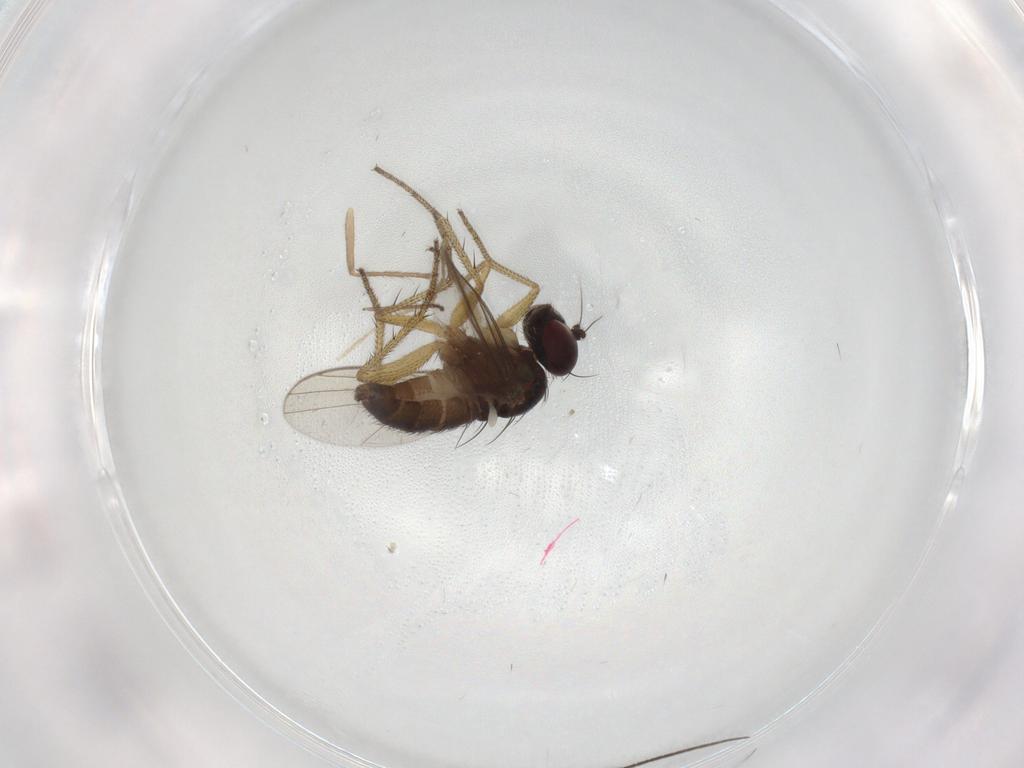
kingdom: Animalia
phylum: Arthropoda
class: Insecta
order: Diptera
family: Sciaridae
